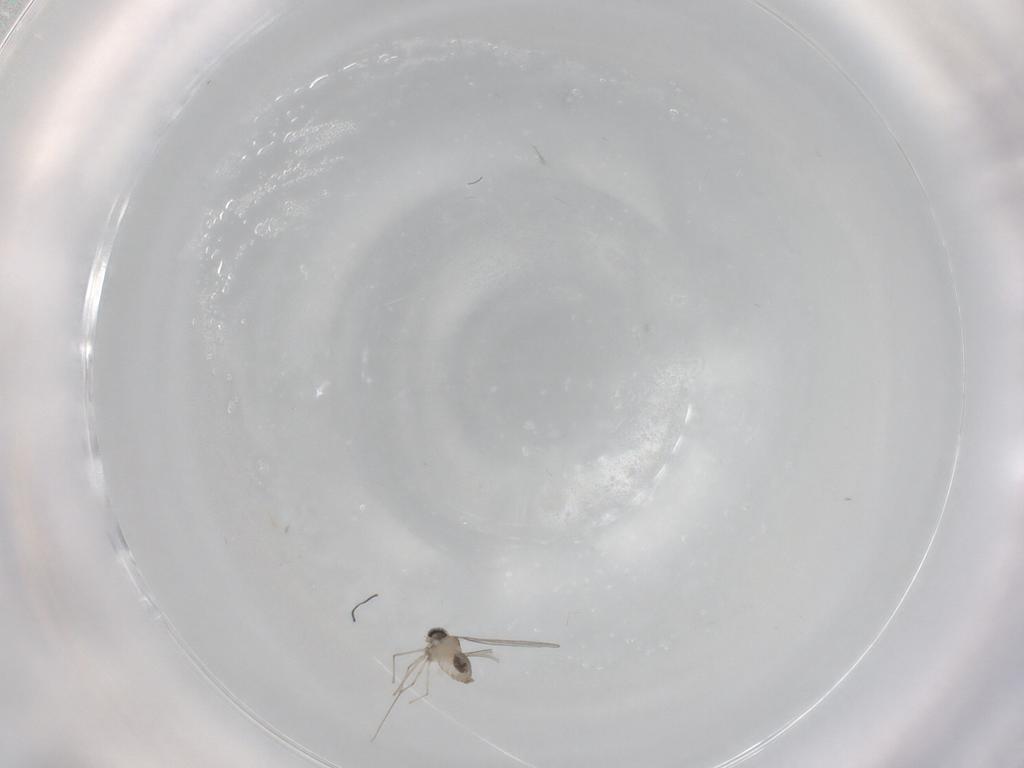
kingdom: Animalia
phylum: Arthropoda
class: Insecta
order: Diptera
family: Cecidomyiidae
